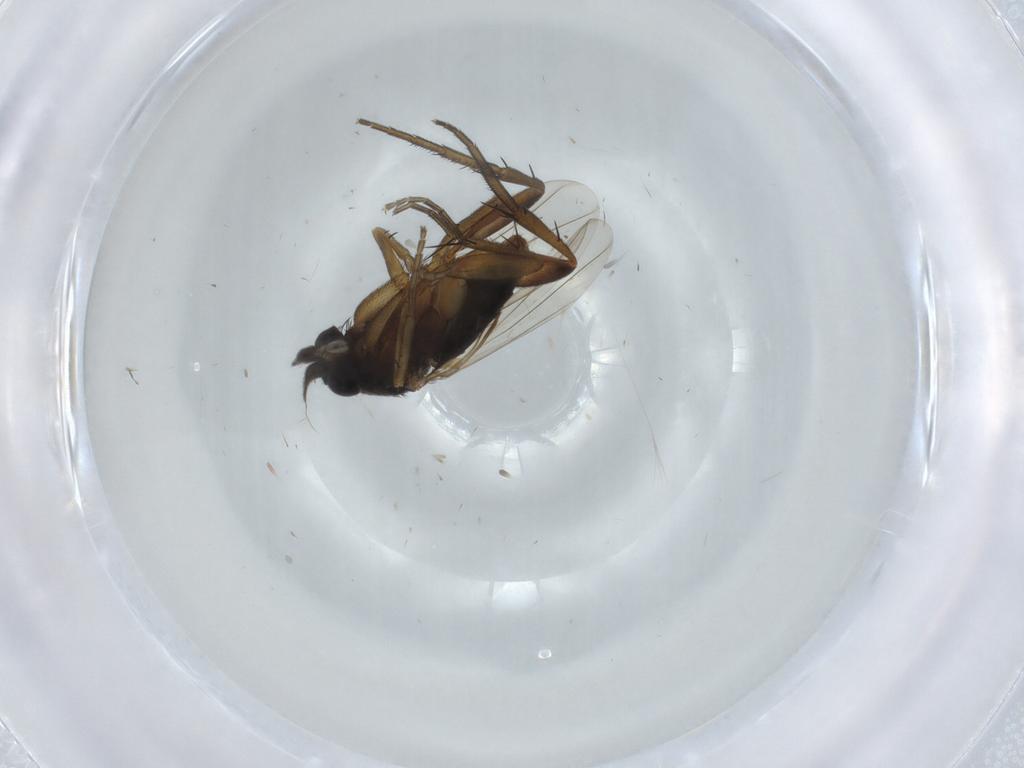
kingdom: Animalia
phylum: Arthropoda
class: Insecta
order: Diptera
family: Phoridae
